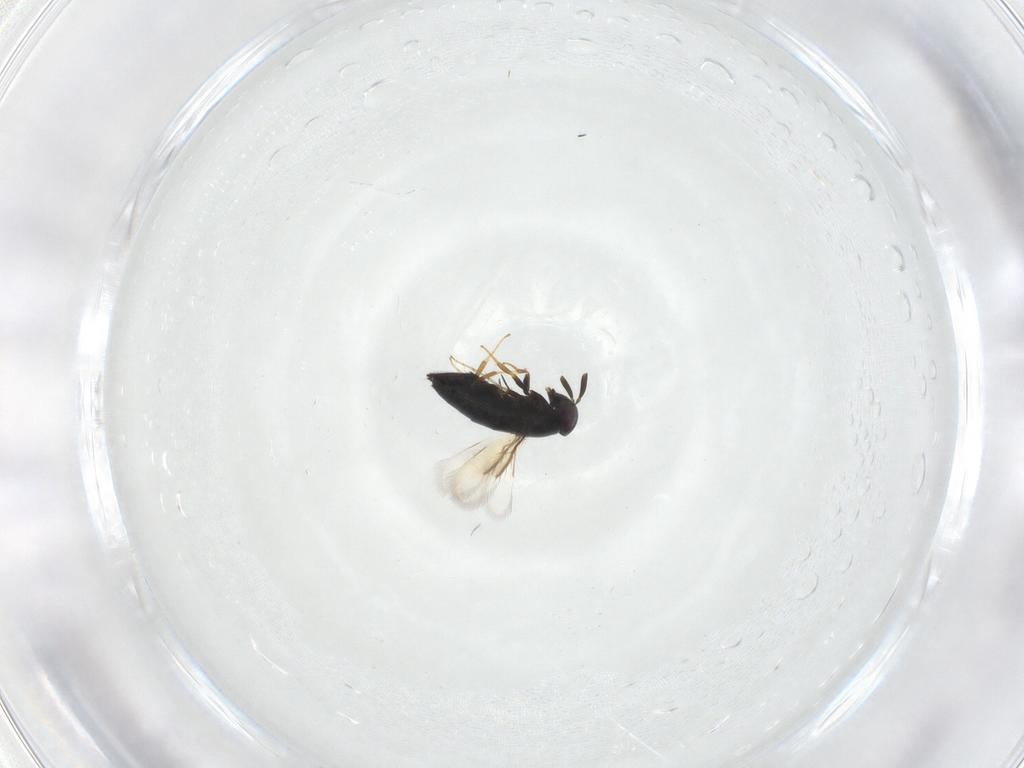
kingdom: Animalia
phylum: Arthropoda
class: Insecta
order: Hymenoptera
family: Signiphoridae
